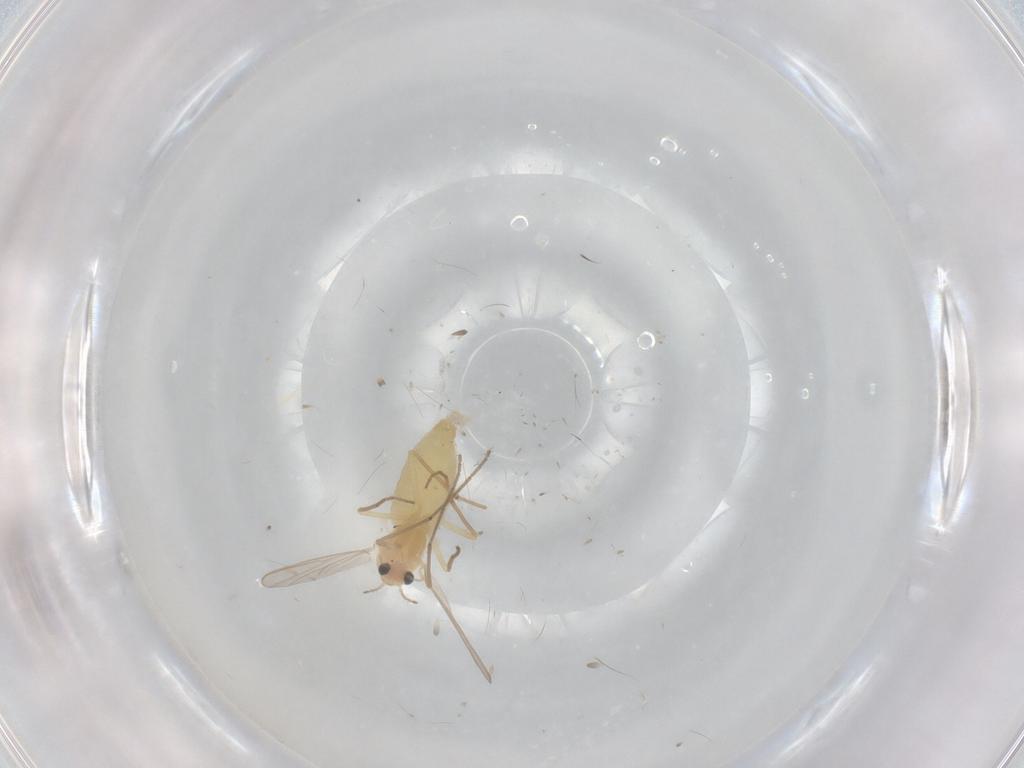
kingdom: Animalia
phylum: Arthropoda
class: Insecta
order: Diptera
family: Chironomidae
